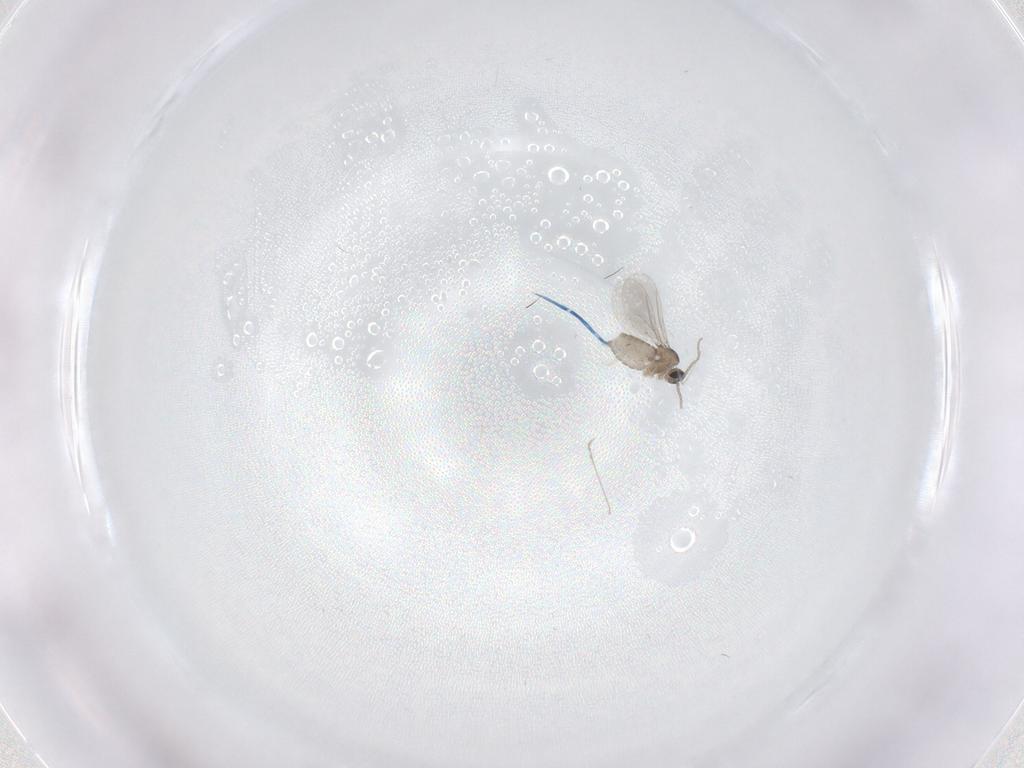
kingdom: Animalia
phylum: Arthropoda
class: Insecta
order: Diptera
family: Cecidomyiidae
